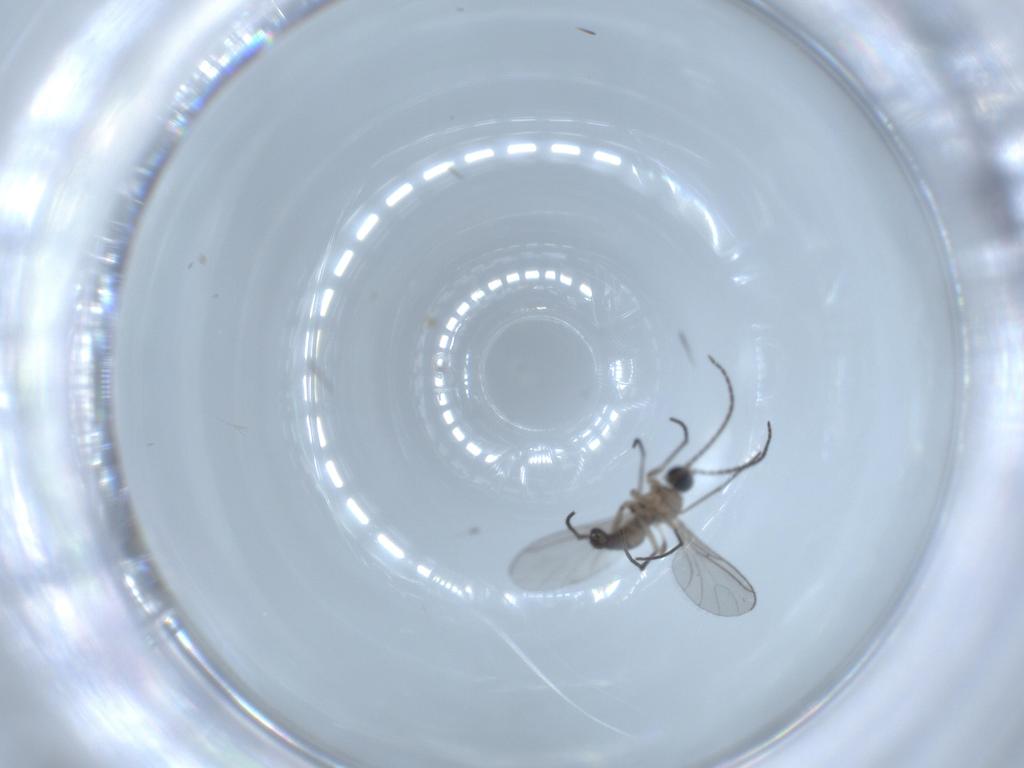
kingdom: Animalia
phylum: Arthropoda
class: Insecta
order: Diptera
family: Sciaridae
